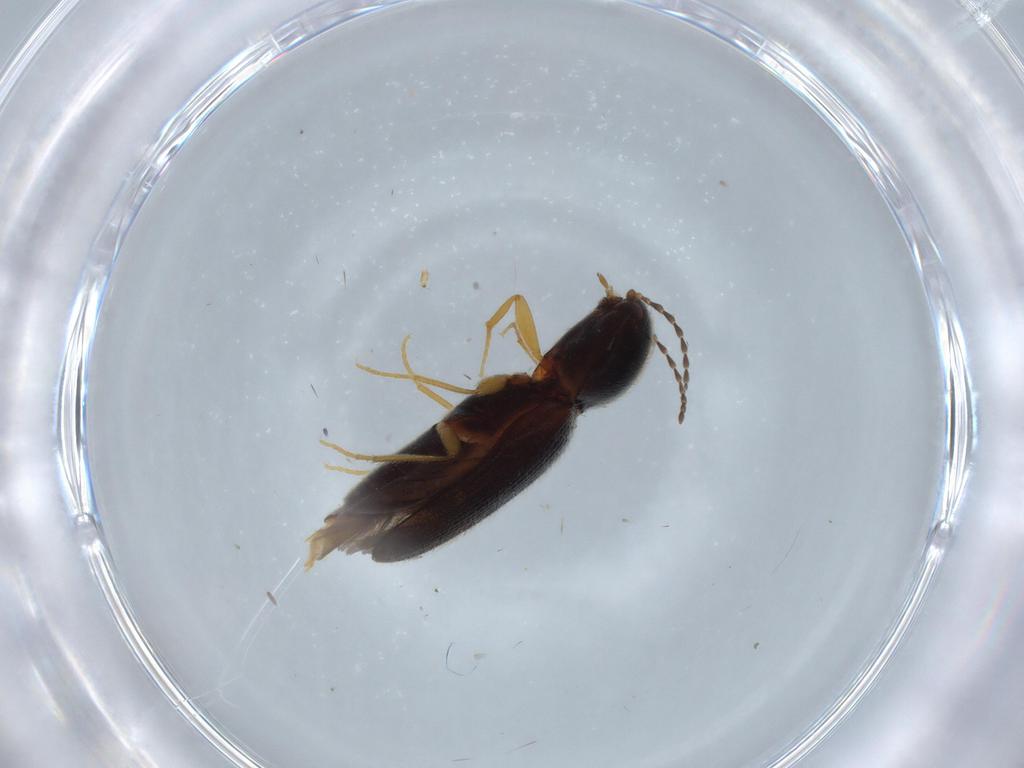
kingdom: Animalia
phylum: Arthropoda
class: Insecta
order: Coleoptera
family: Elateridae
